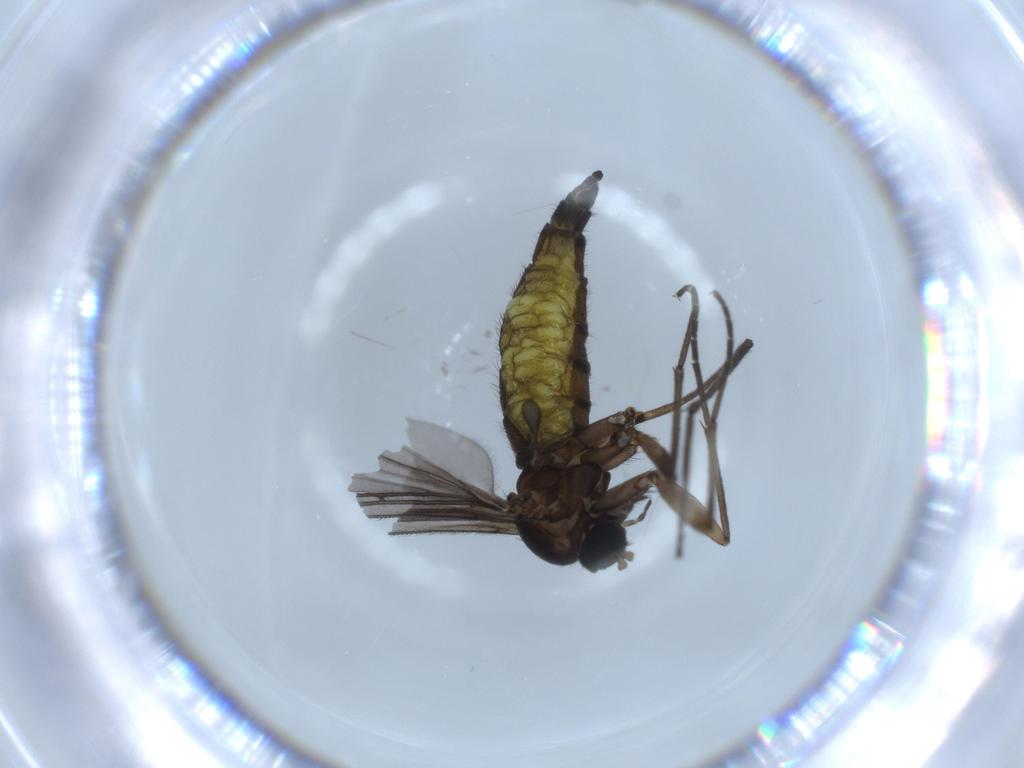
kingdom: Animalia
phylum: Arthropoda
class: Insecta
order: Diptera
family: Sciaridae
